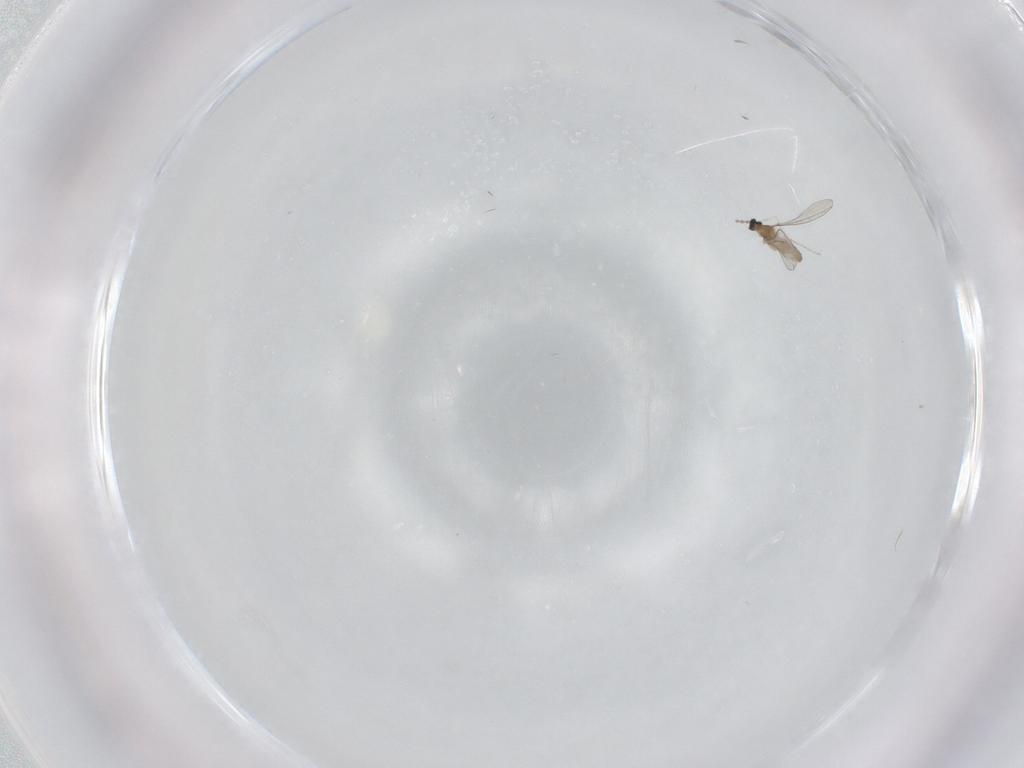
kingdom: Animalia
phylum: Arthropoda
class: Insecta
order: Diptera
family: Cecidomyiidae
